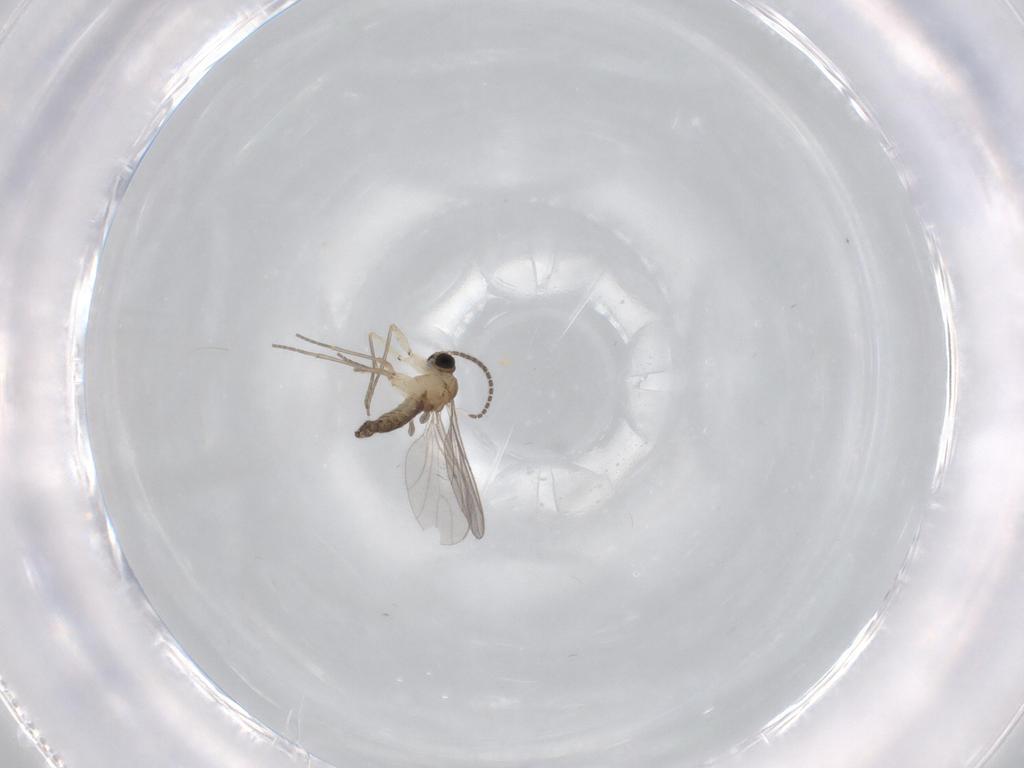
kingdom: Animalia
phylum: Arthropoda
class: Insecta
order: Diptera
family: Sciaridae
